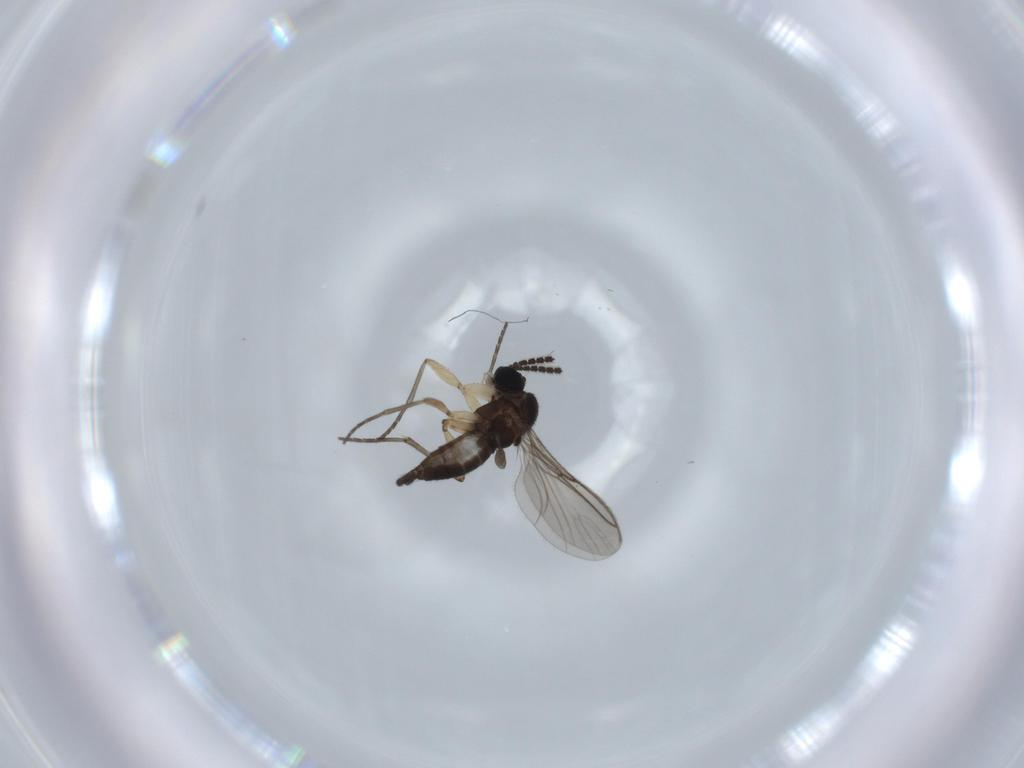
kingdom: Animalia
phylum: Arthropoda
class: Insecta
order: Diptera
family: Sciaridae
